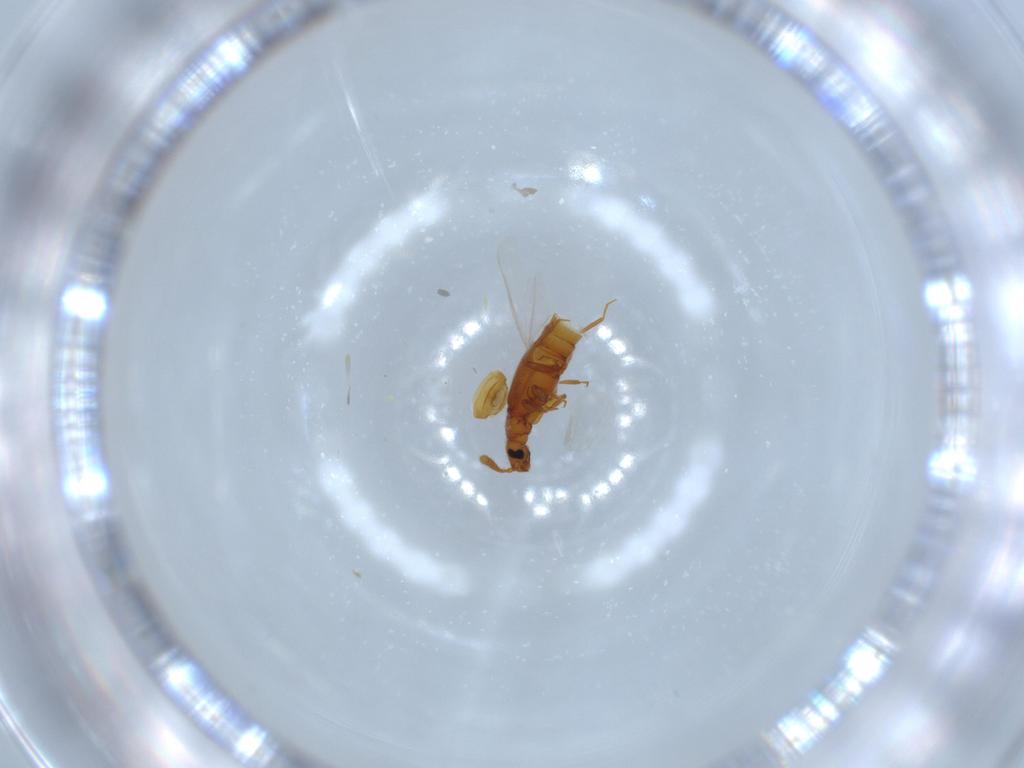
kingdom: Animalia
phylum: Arthropoda
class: Insecta
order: Coleoptera
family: Staphylinidae
